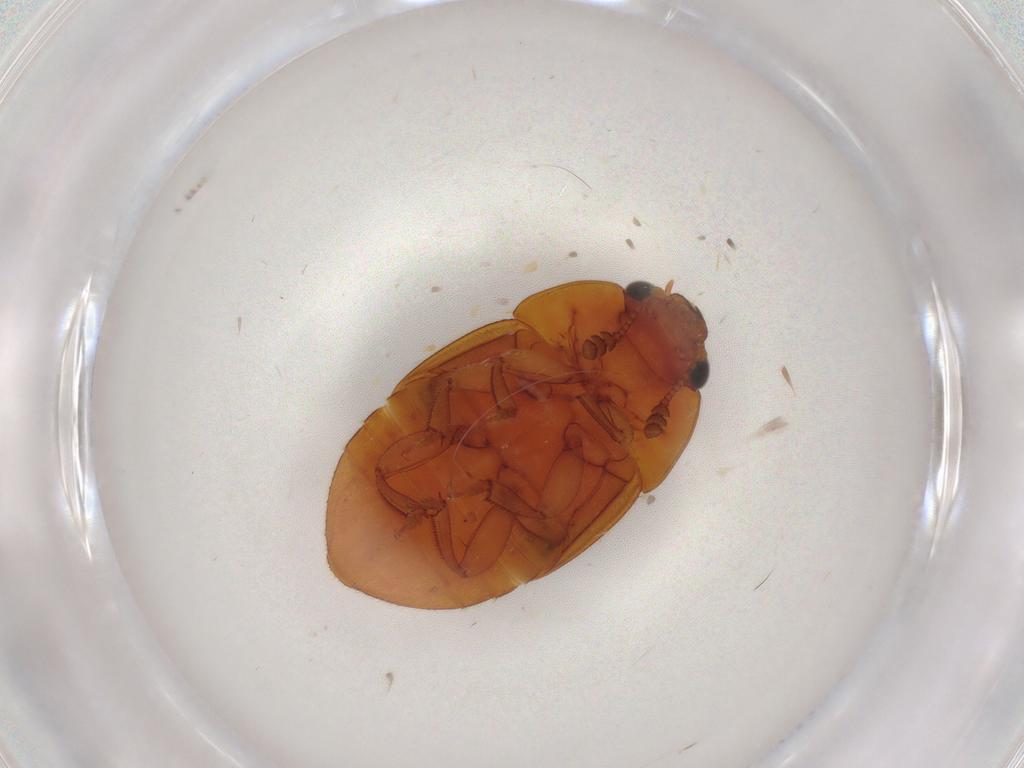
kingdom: Animalia
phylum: Arthropoda
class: Insecta
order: Coleoptera
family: Nitidulidae
